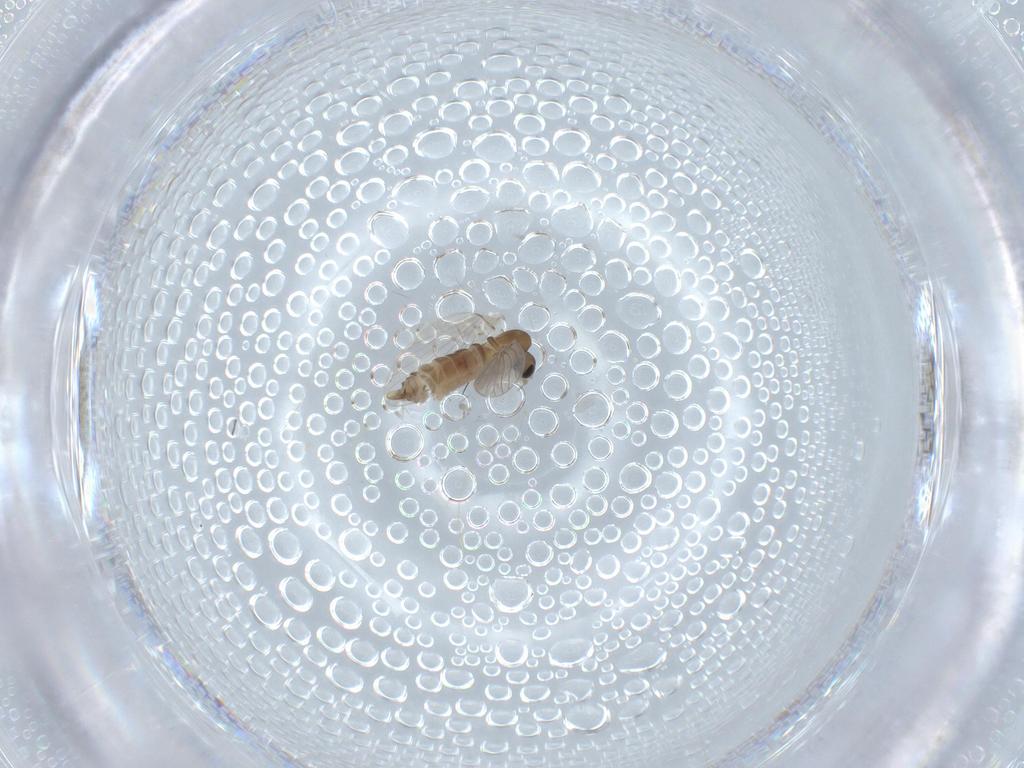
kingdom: Animalia
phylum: Arthropoda
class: Insecta
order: Diptera
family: Psychodidae
